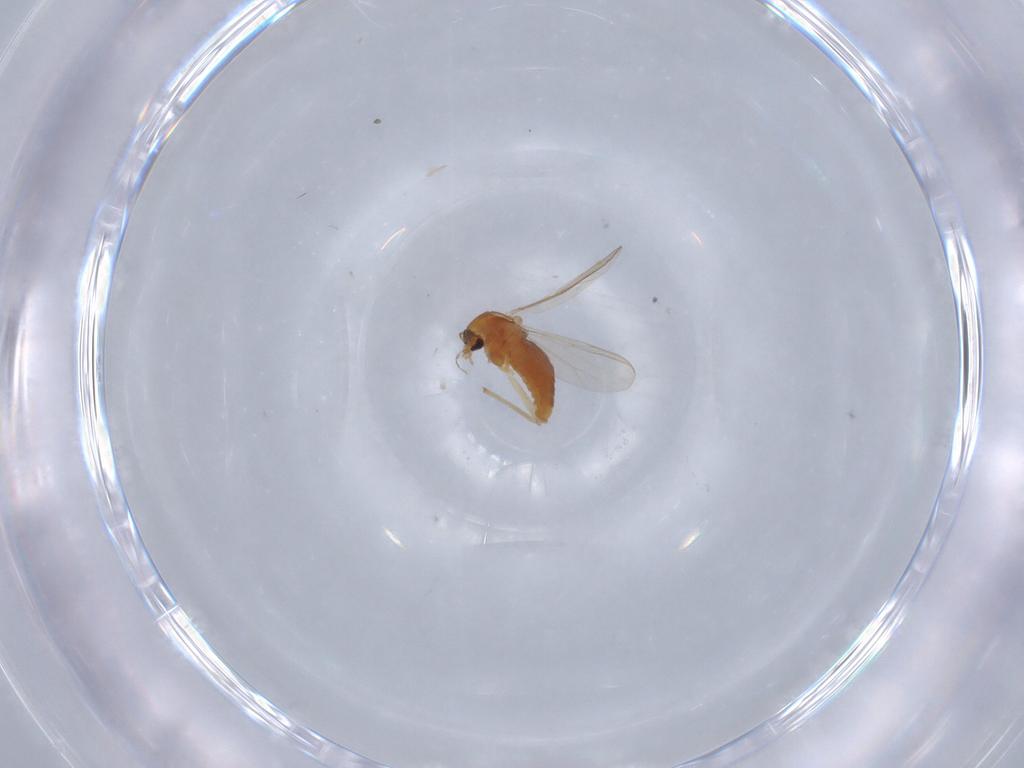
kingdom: Animalia
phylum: Arthropoda
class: Insecta
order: Diptera
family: Chironomidae
